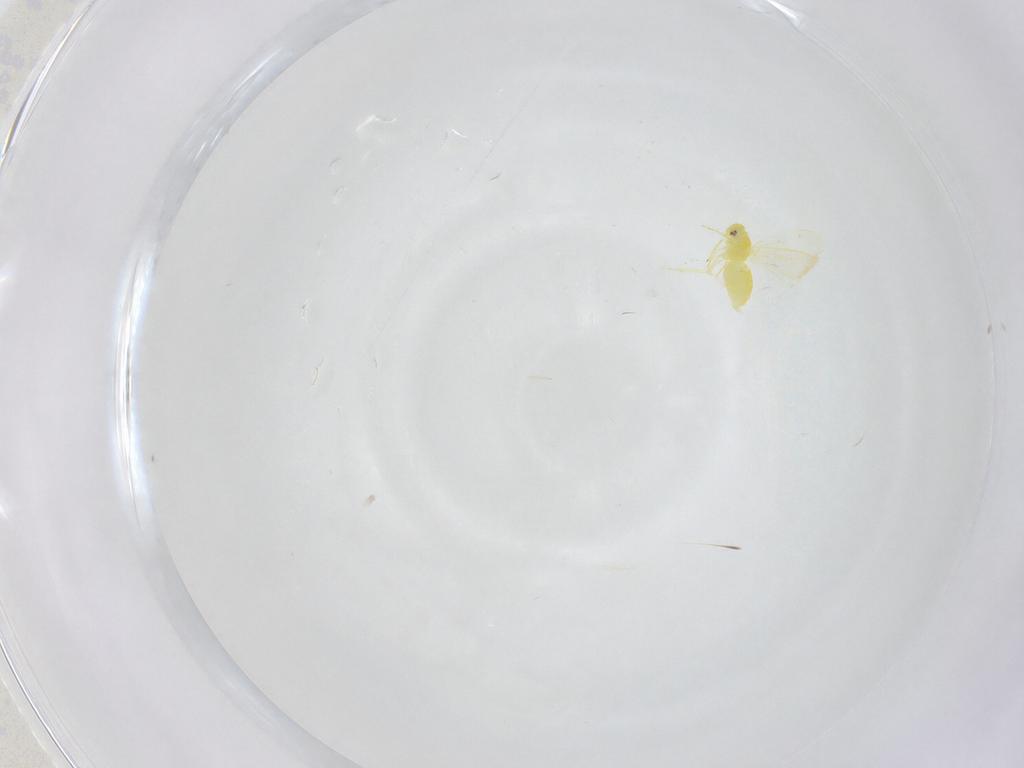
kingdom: Animalia
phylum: Arthropoda
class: Insecta
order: Hemiptera
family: Aleyrodidae
